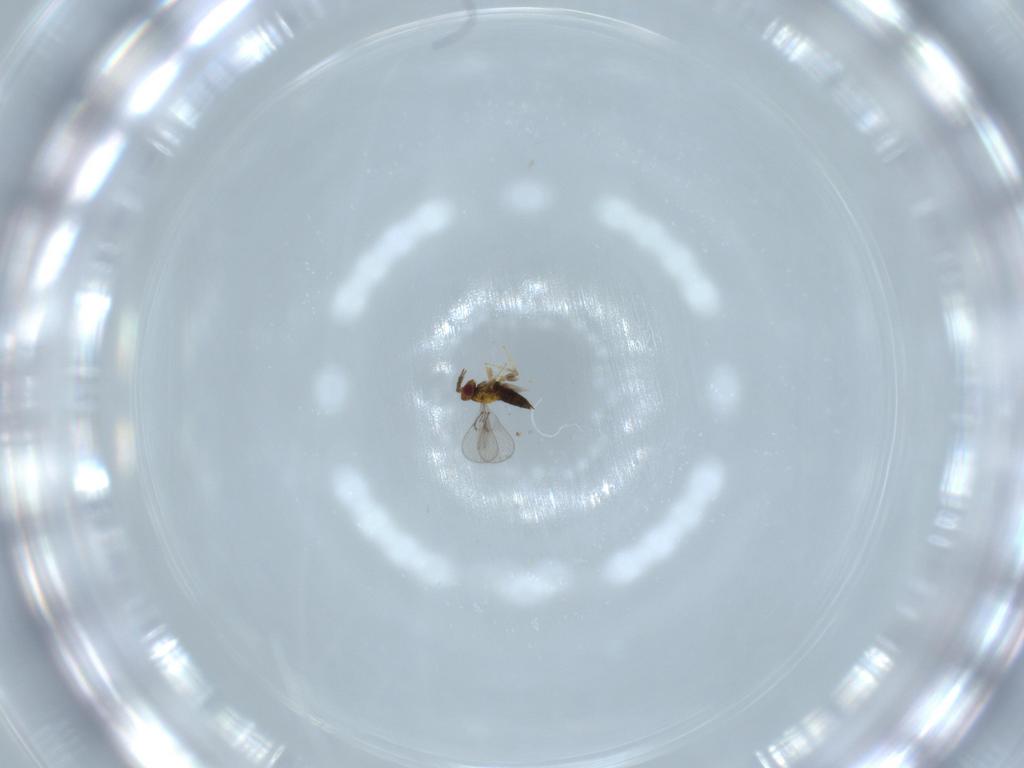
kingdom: Animalia
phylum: Arthropoda
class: Insecta
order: Hymenoptera
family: Trichogrammatidae
